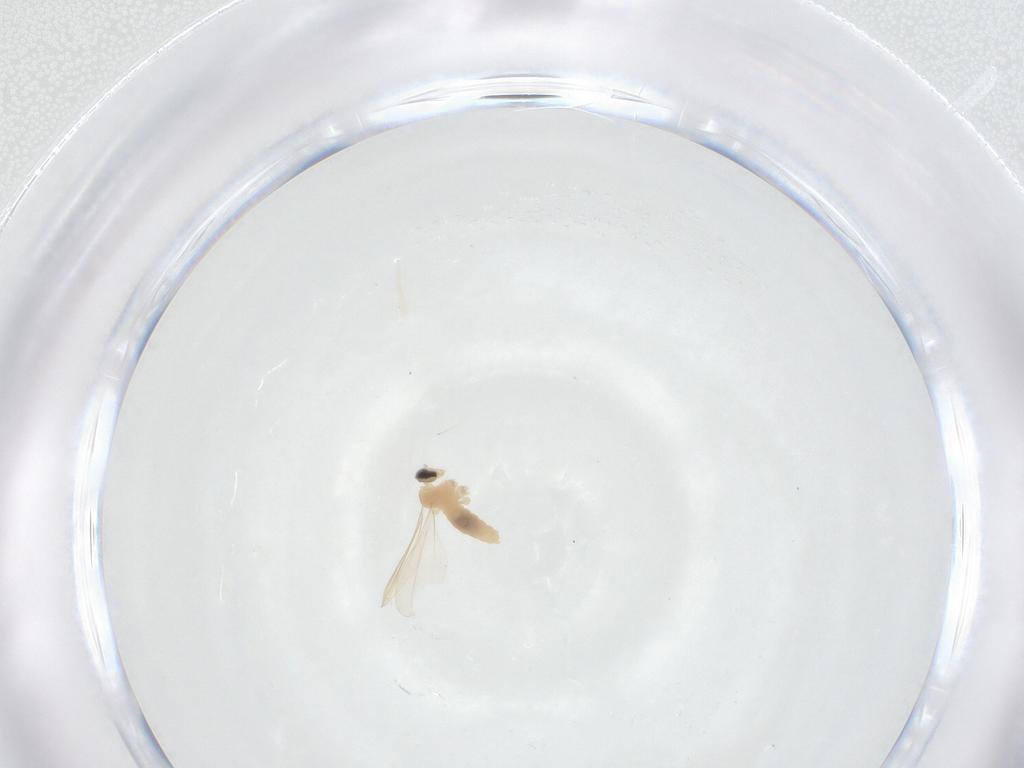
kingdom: Animalia
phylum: Arthropoda
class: Insecta
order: Diptera
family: Cecidomyiidae
